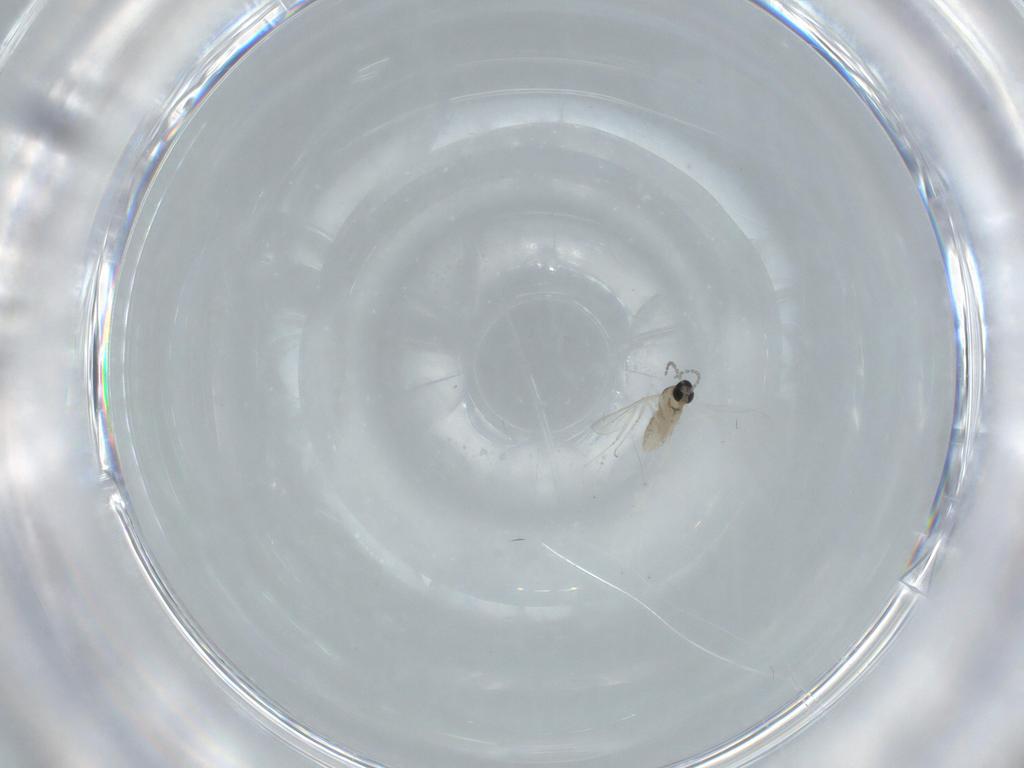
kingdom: Animalia
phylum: Arthropoda
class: Insecta
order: Diptera
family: Cecidomyiidae
